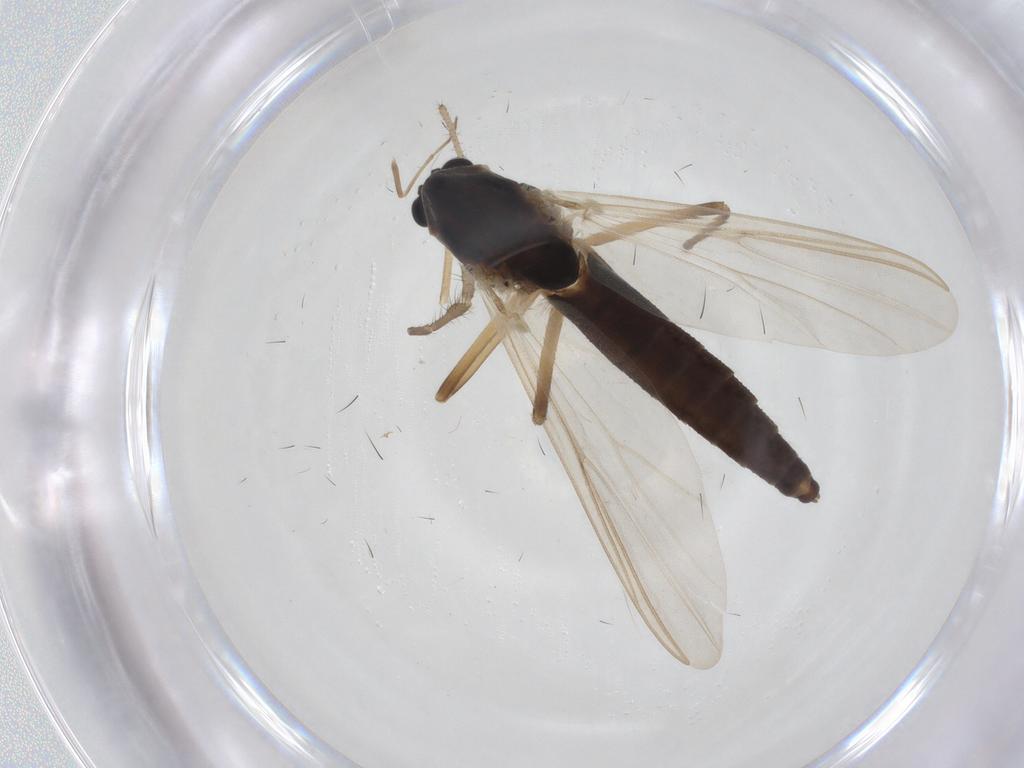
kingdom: Animalia
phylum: Arthropoda
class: Insecta
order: Diptera
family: Chironomidae
